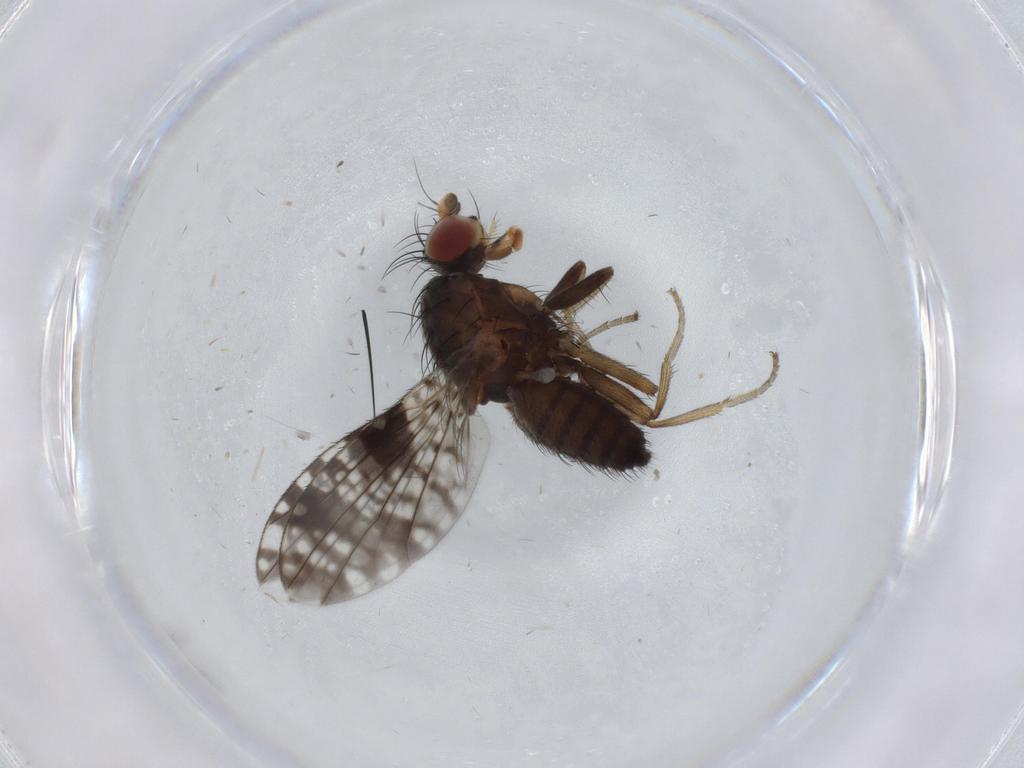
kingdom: Animalia
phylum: Arthropoda
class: Insecta
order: Diptera
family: Tephritidae
